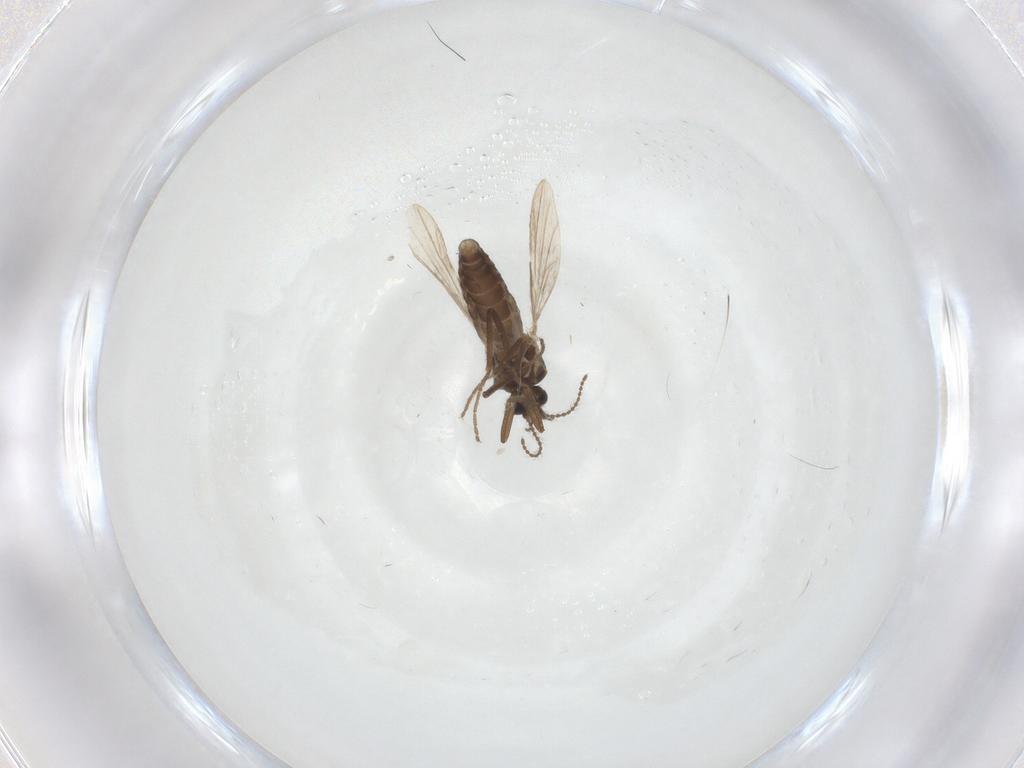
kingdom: Animalia
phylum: Arthropoda
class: Insecta
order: Diptera
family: Ceratopogonidae
